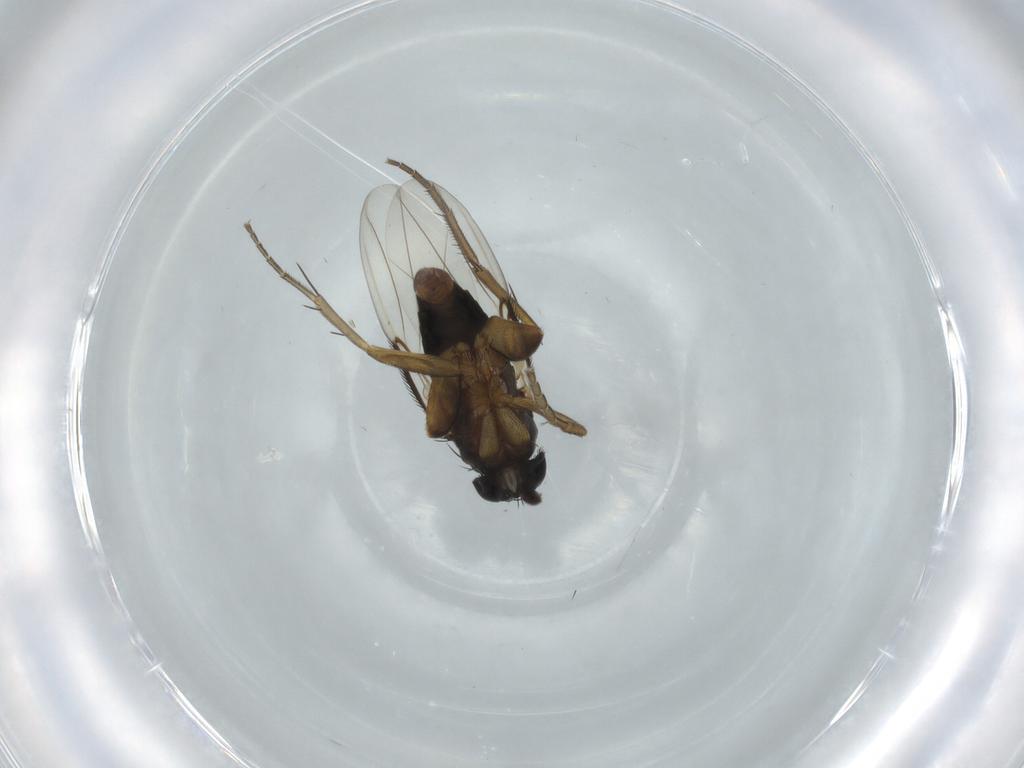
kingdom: Animalia
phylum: Arthropoda
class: Insecta
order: Diptera
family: Phoridae
